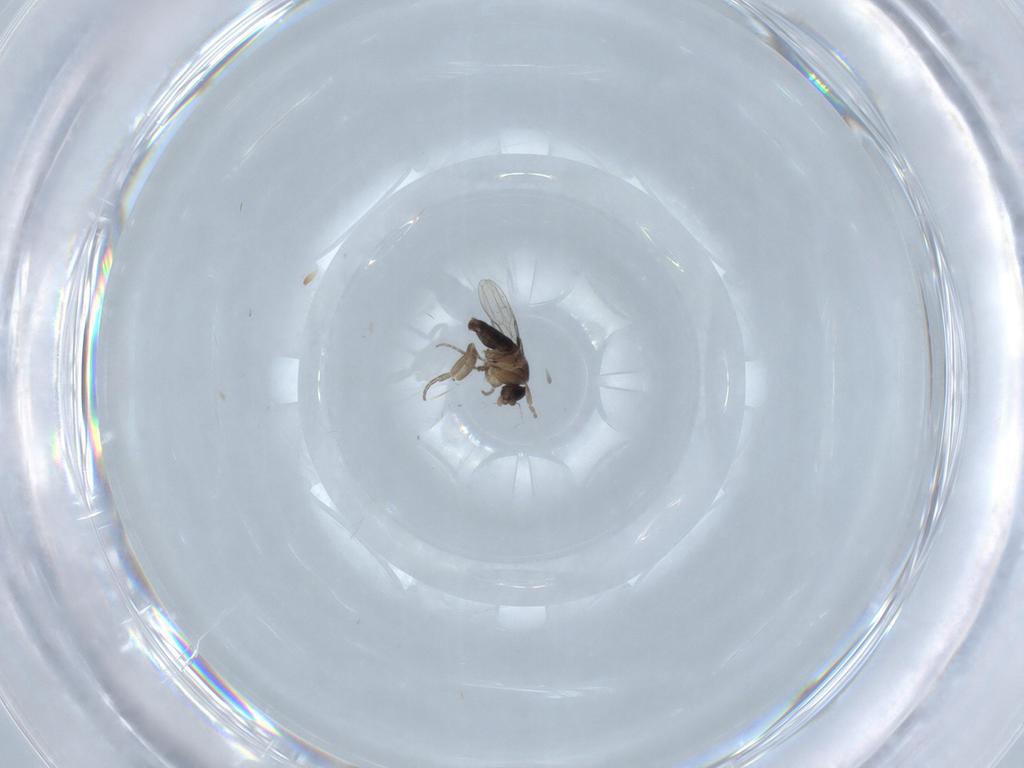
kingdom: Animalia
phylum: Arthropoda
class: Insecta
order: Diptera
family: Phoridae
